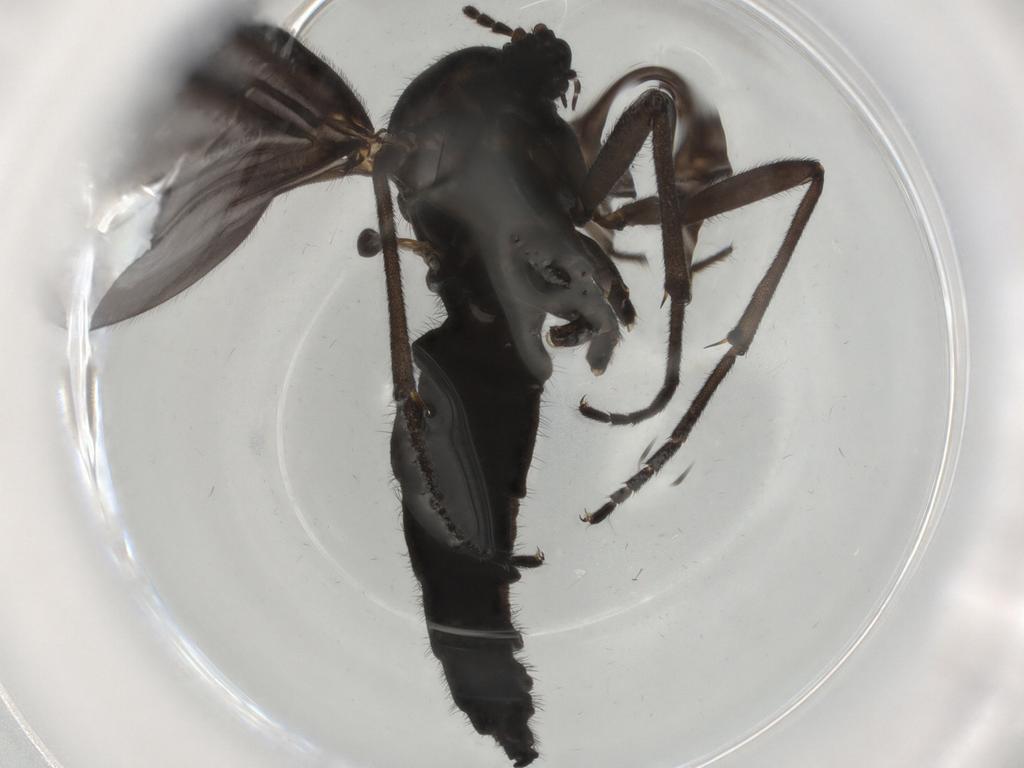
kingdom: Animalia
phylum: Arthropoda
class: Insecta
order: Diptera
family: Sciaridae
